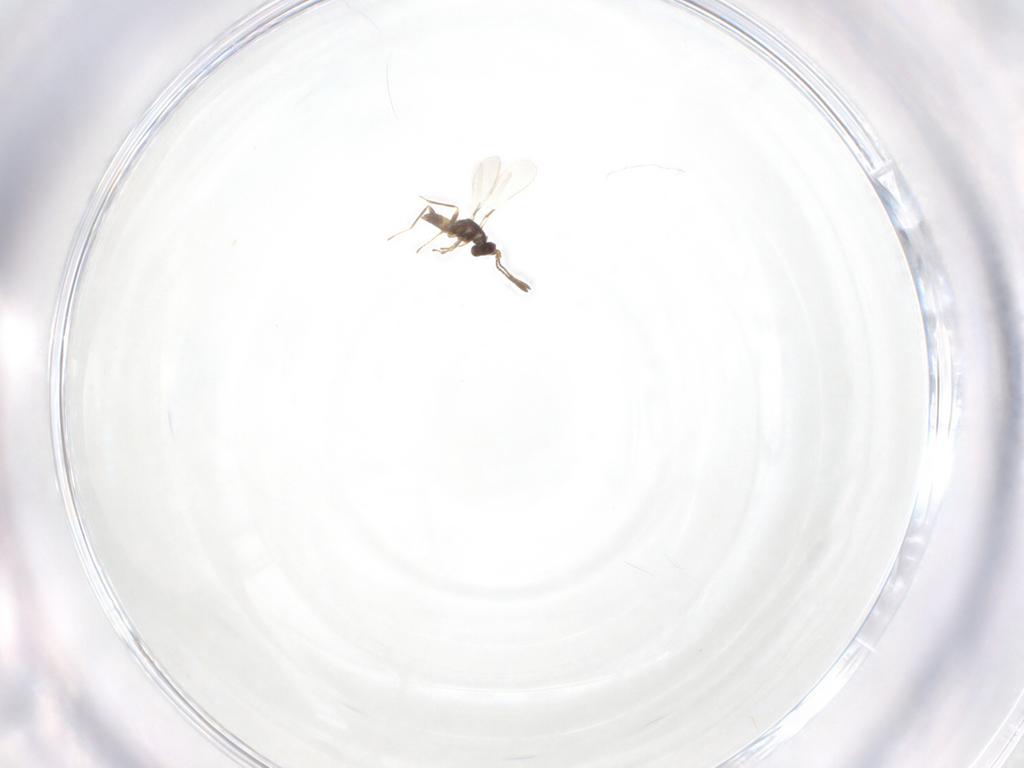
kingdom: Animalia
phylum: Arthropoda
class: Insecta
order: Hymenoptera
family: Mymaridae
